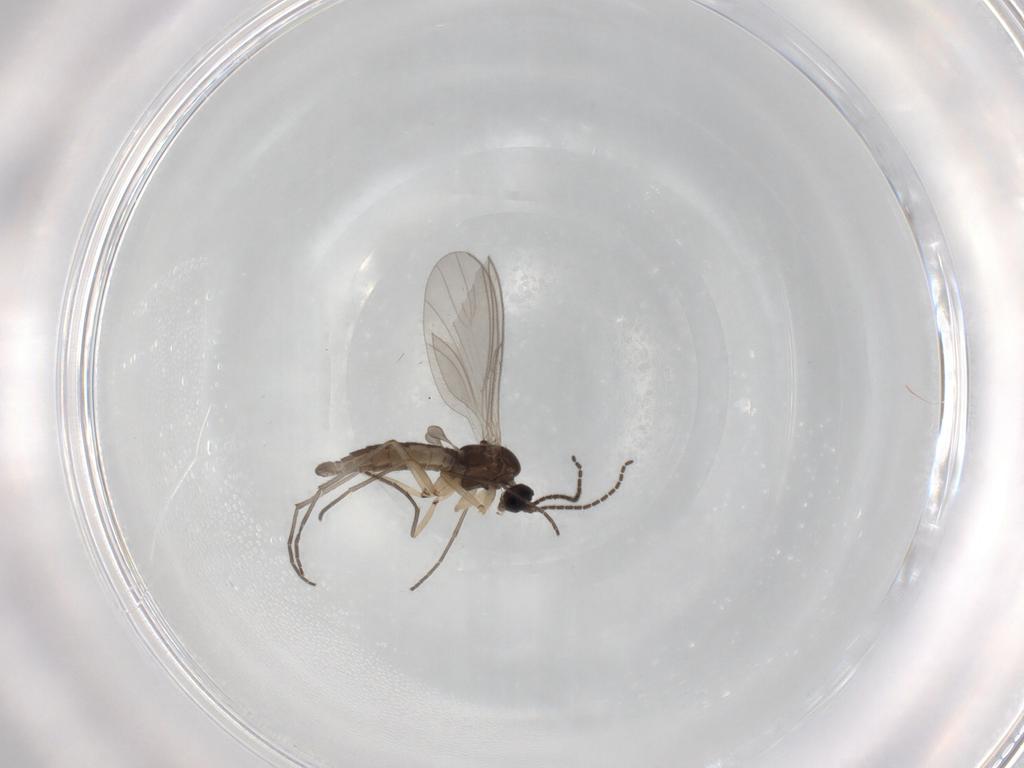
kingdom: Animalia
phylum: Arthropoda
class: Insecta
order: Diptera
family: Sciaridae
